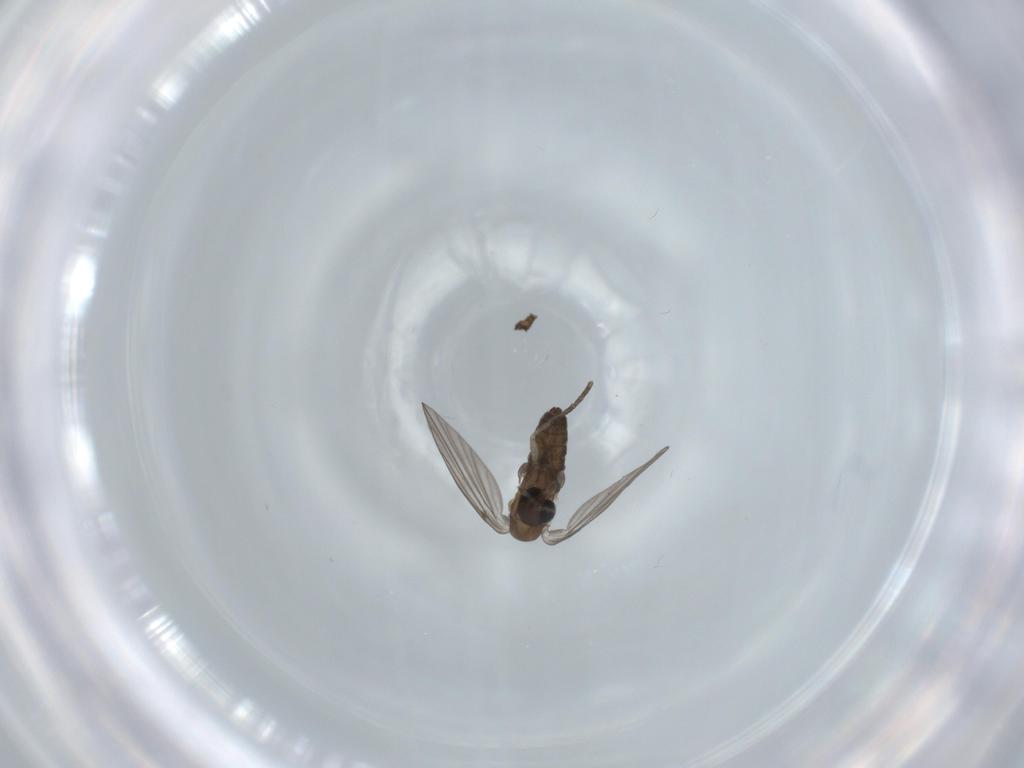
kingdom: Animalia
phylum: Arthropoda
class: Insecta
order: Diptera
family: Psychodidae
